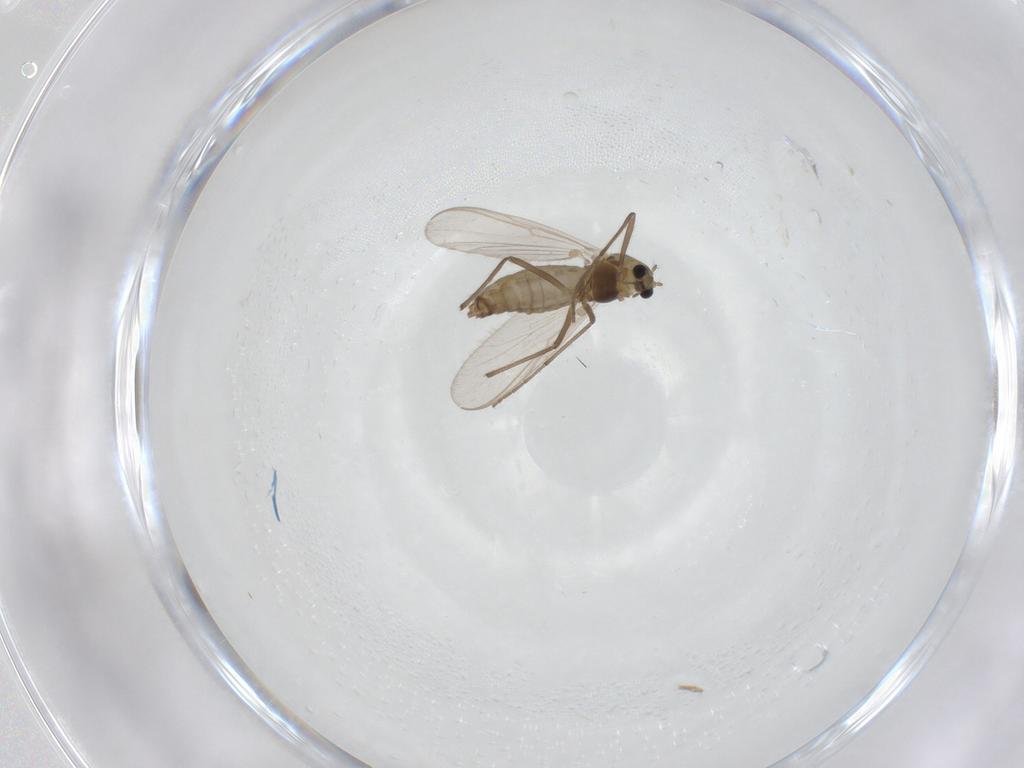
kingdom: Animalia
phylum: Arthropoda
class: Insecta
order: Diptera
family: Chironomidae
